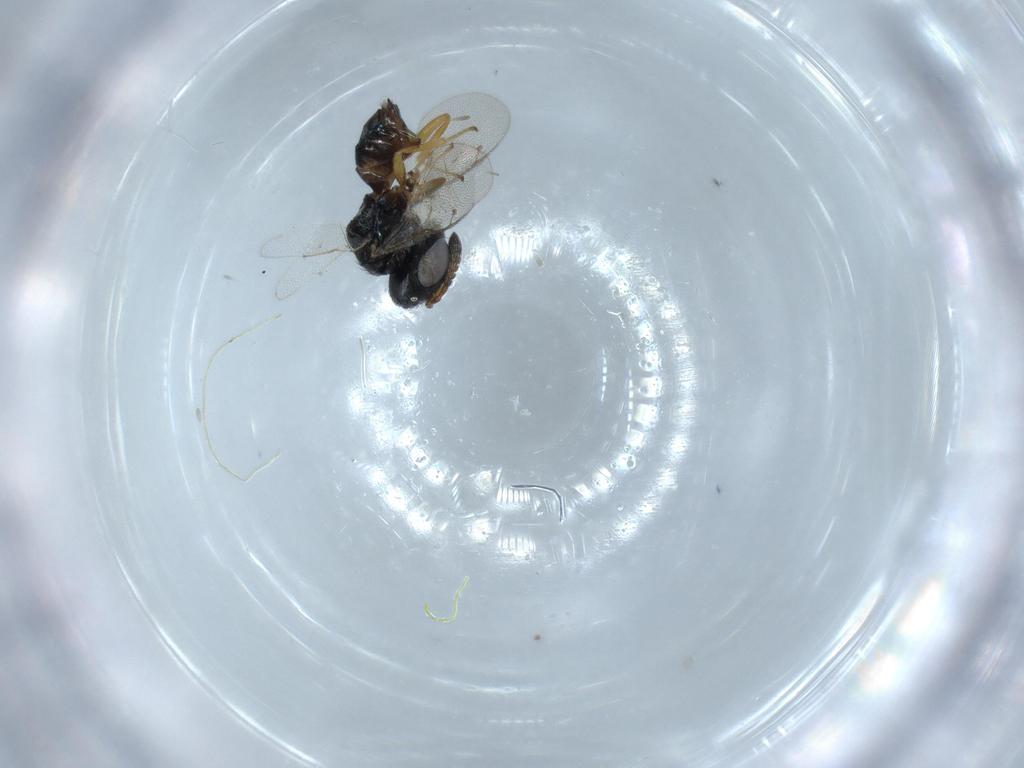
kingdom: Animalia
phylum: Arthropoda
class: Insecta
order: Hymenoptera
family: Pteromalidae
